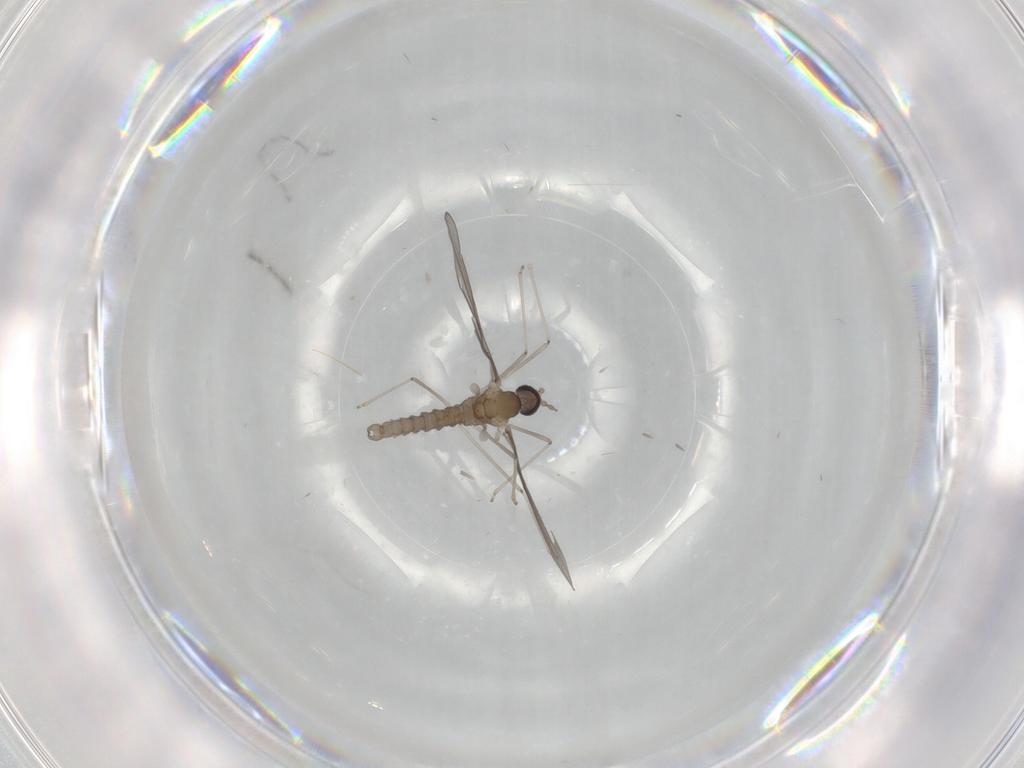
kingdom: Animalia
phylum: Arthropoda
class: Insecta
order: Diptera
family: Cecidomyiidae
